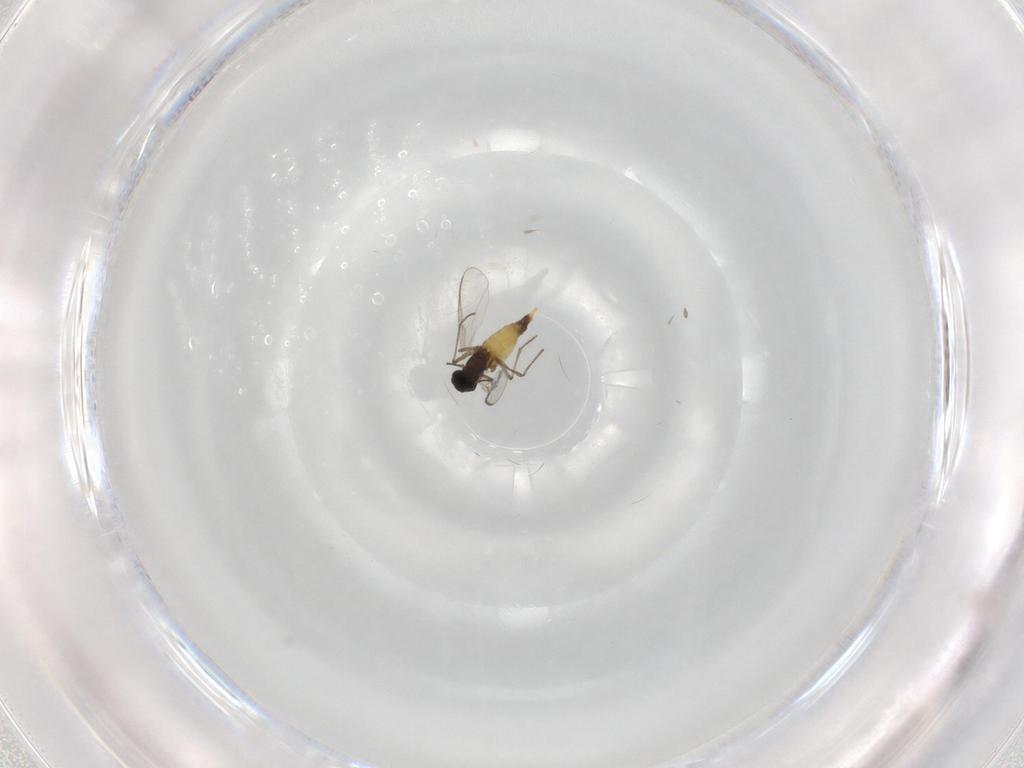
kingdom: Animalia
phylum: Arthropoda
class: Insecta
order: Diptera
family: Chironomidae
